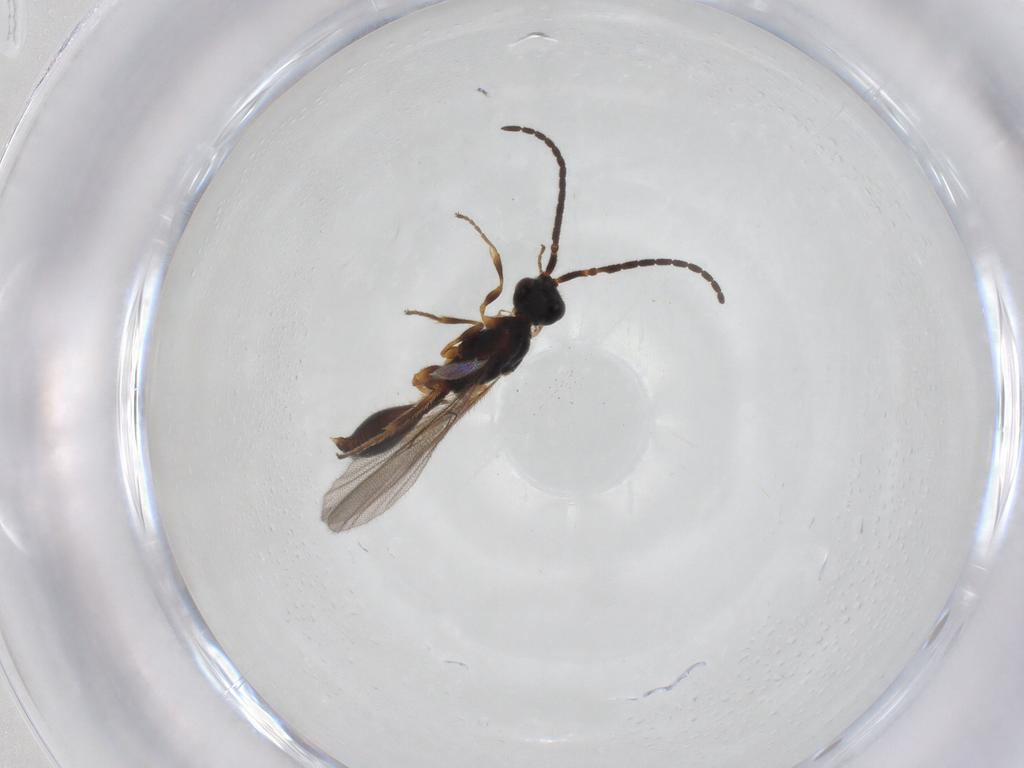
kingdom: Animalia
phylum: Arthropoda
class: Insecta
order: Hymenoptera
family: Diapriidae
